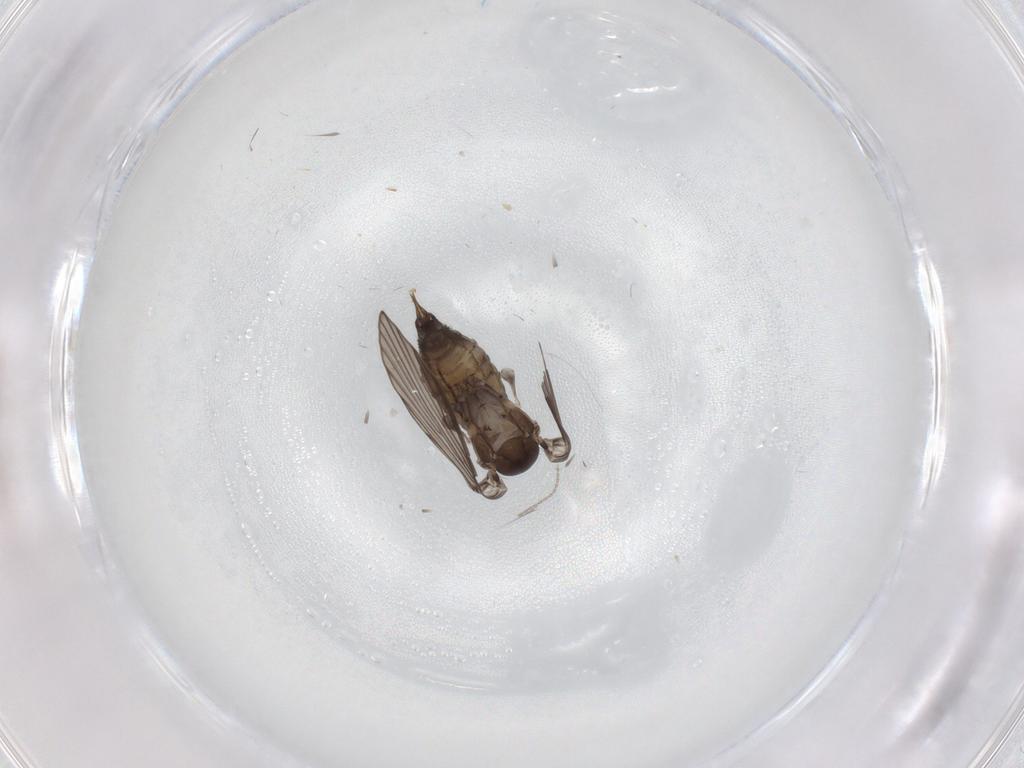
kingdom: Animalia
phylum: Arthropoda
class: Insecta
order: Diptera
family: Psychodidae
